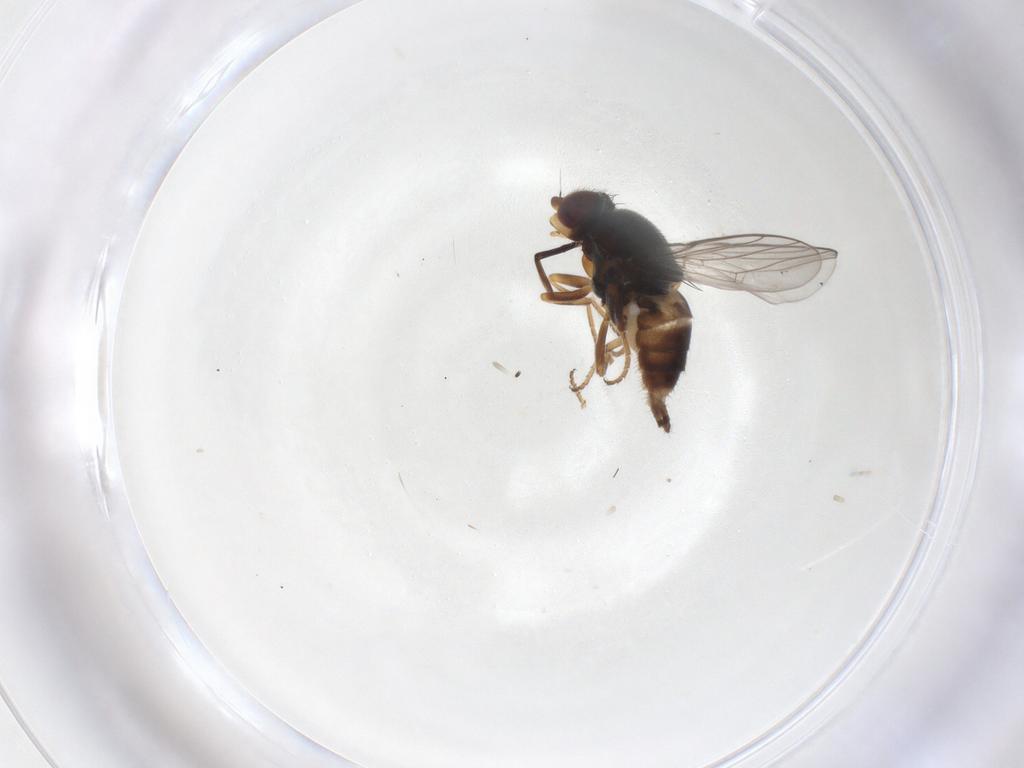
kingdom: Animalia
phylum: Arthropoda
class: Insecta
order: Diptera
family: Chloropidae
